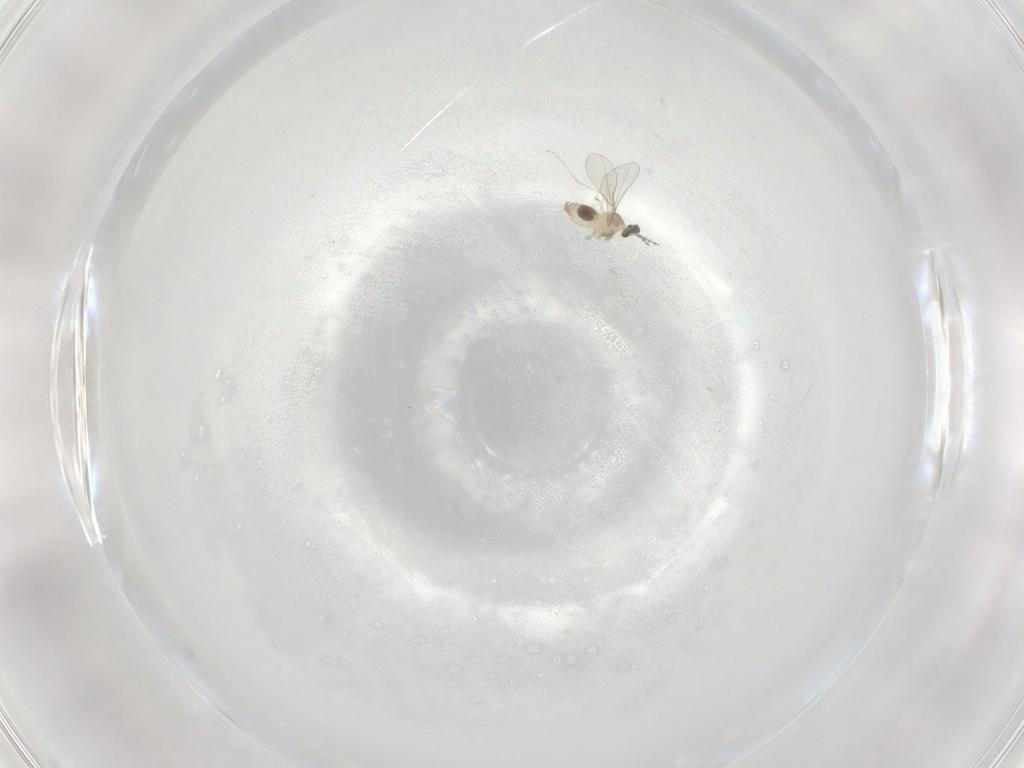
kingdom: Animalia
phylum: Arthropoda
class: Insecta
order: Diptera
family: Cecidomyiidae
